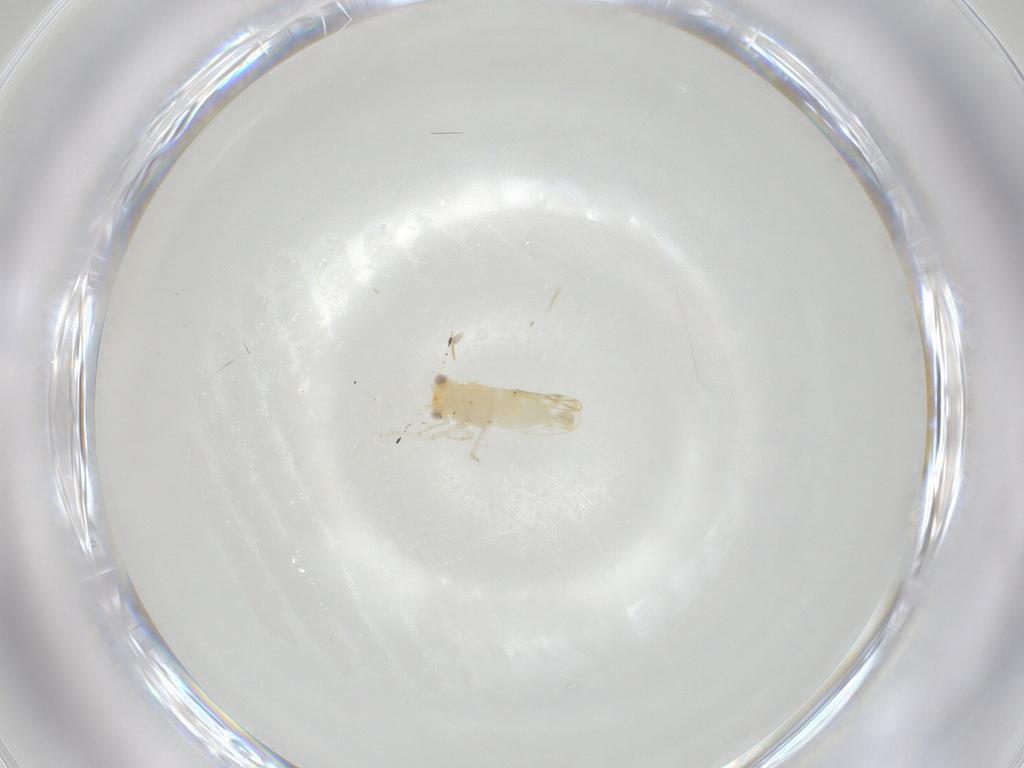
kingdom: Animalia
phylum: Arthropoda
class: Insecta
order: Hemiptera
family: Aphalaridae
